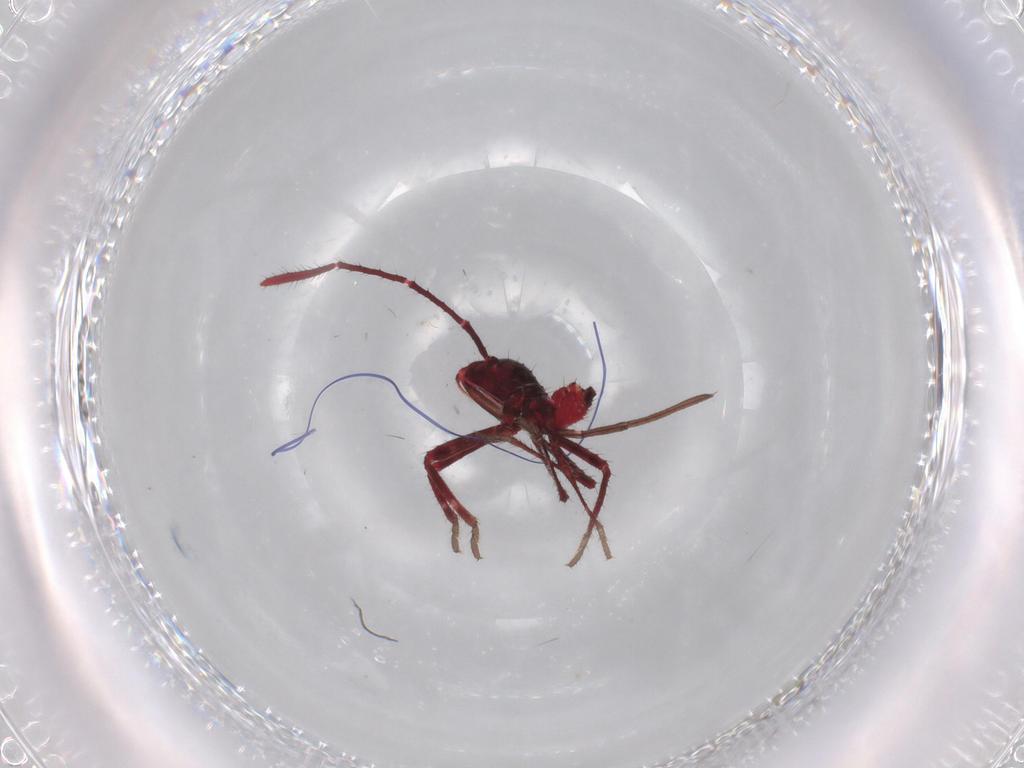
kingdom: Animalia
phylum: Arthropoda
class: Insecta
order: Hemiptera
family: Coreidae
